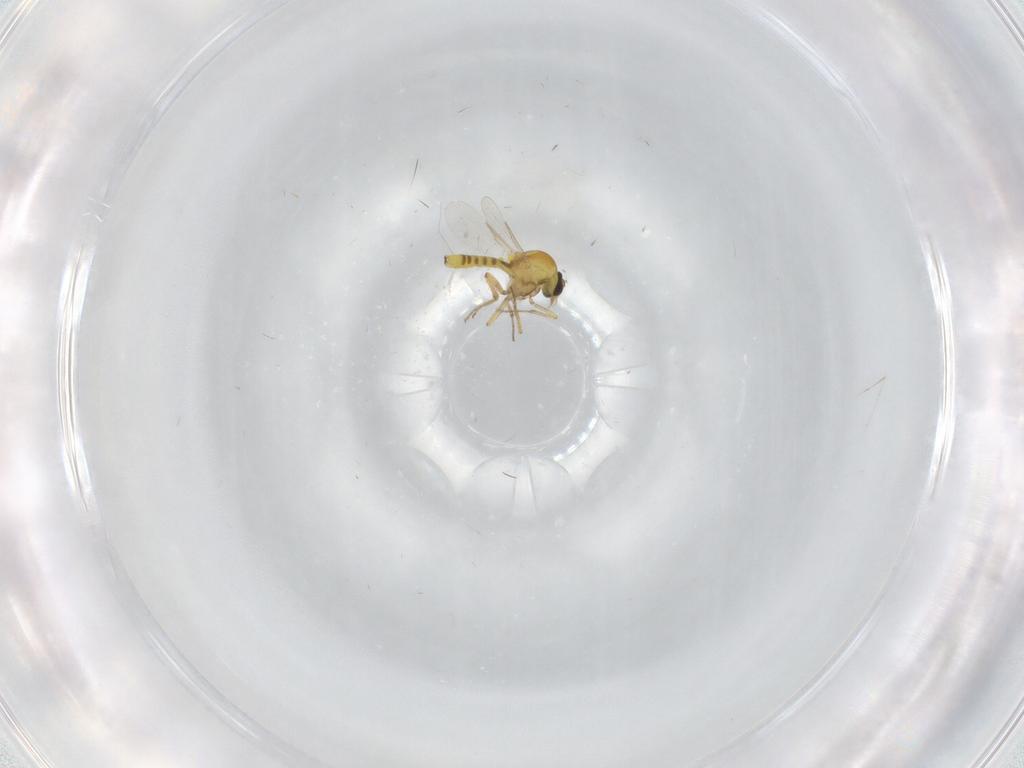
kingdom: Animalia
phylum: Arthropoda
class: Insecta
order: Diptera
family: Ceratopogonidae
